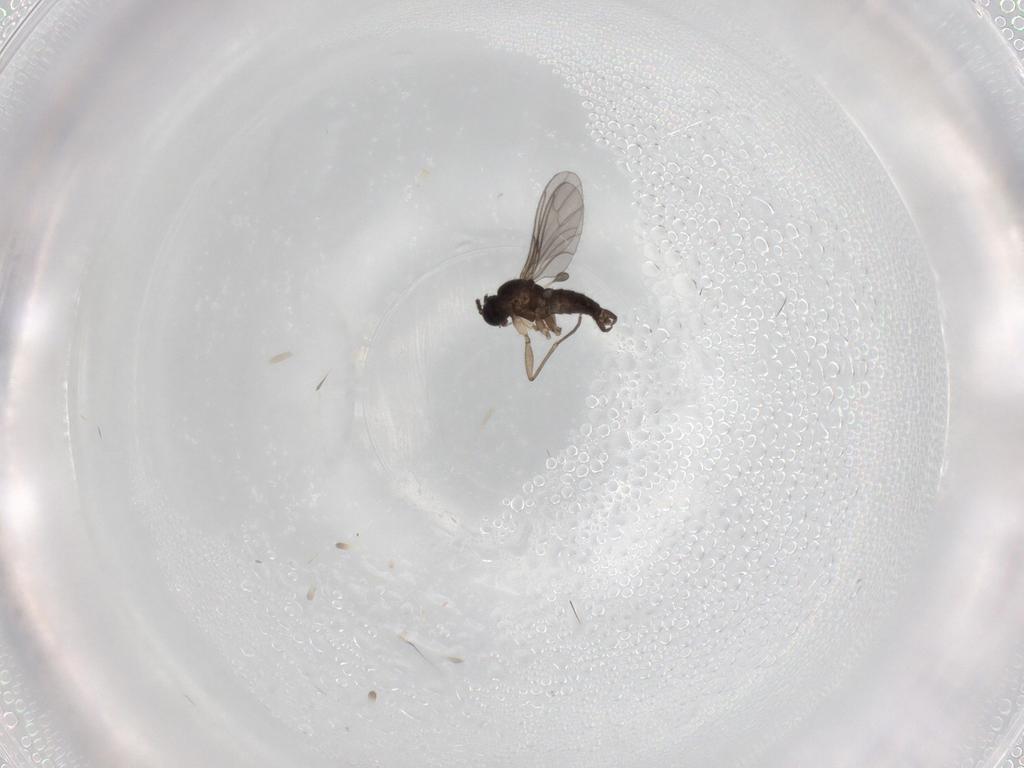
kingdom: Animalia
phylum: Arthropoda
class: Insecta
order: Diptera
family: Sciaridae
